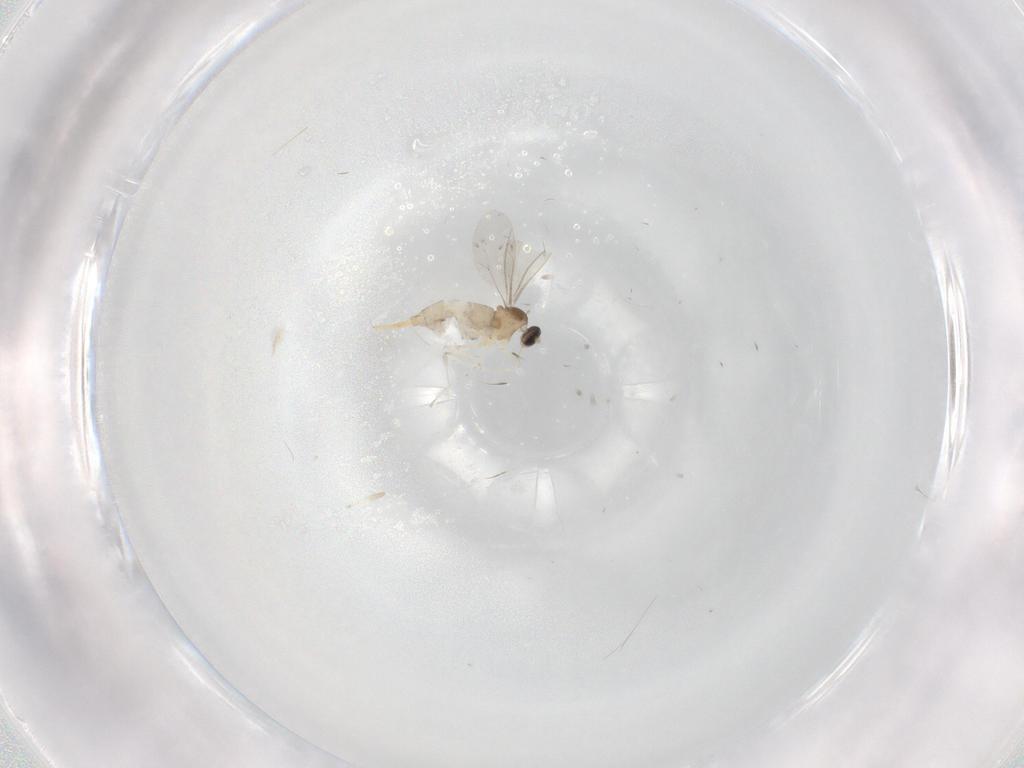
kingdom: Animalia
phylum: Arthropoda
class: Insecta
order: Diptera
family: Cecidomyiidae
